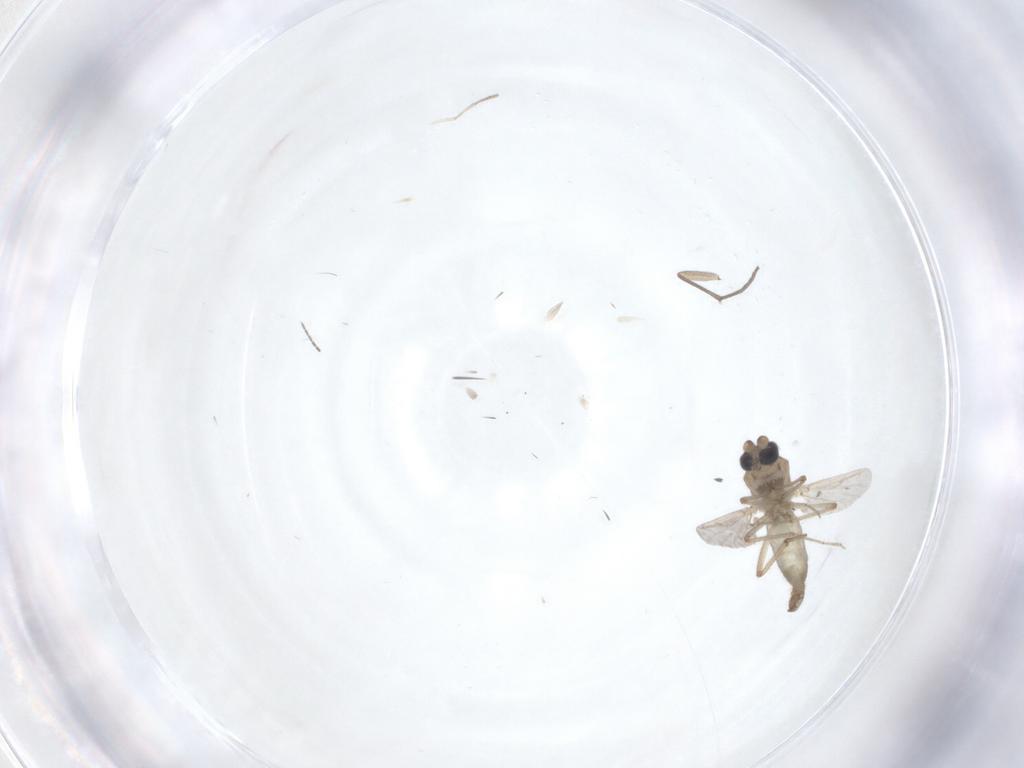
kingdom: Animalia
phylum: Arthropoda
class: Insecta
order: Diptera
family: Sciaridae
